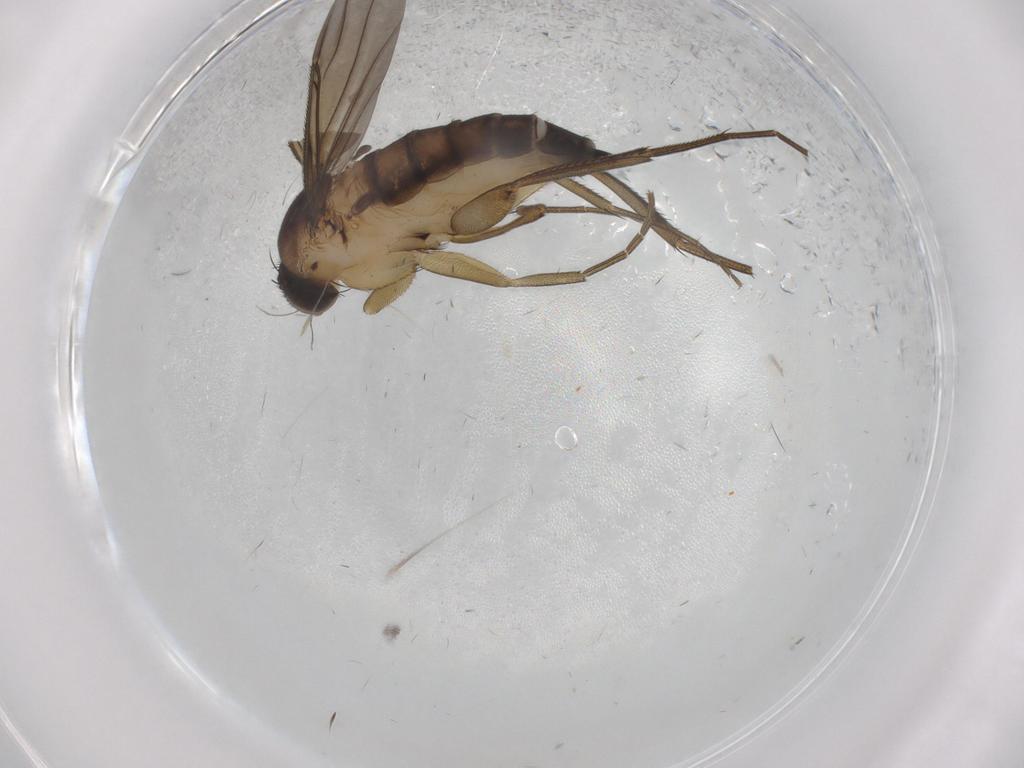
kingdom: Animalia
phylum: Arthropoda
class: Insecta
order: Diptera
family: Phoridae
